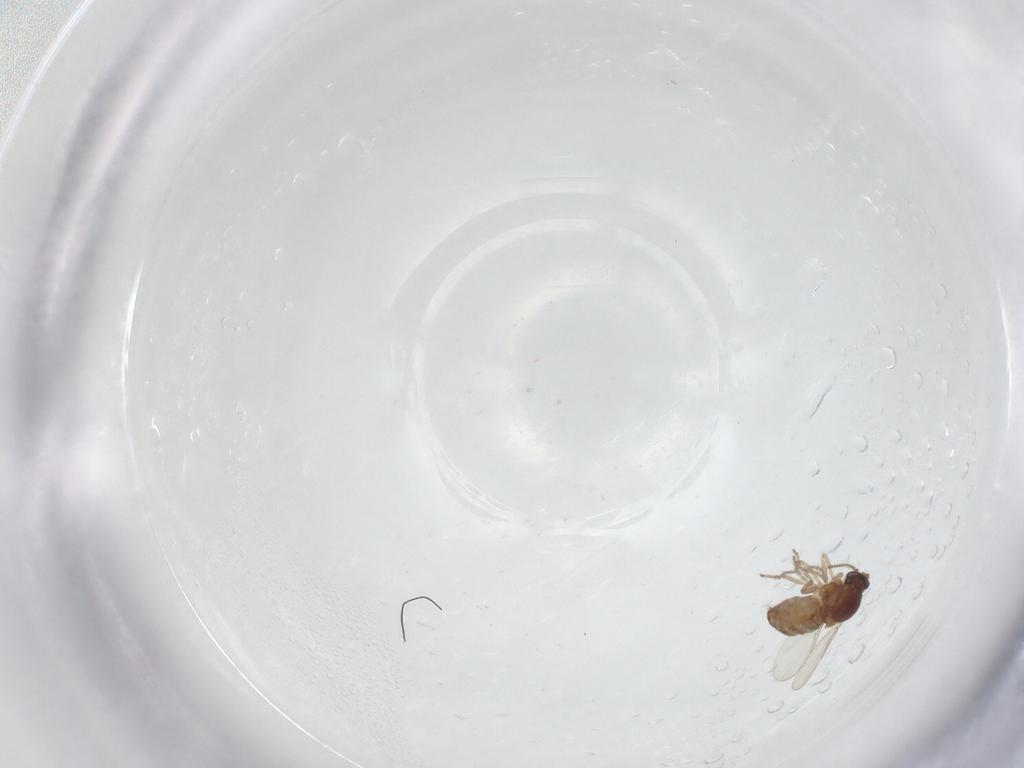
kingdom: Animalia
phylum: Arthropoda
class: Insecta
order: Diptera
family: Ceratopogonidae
